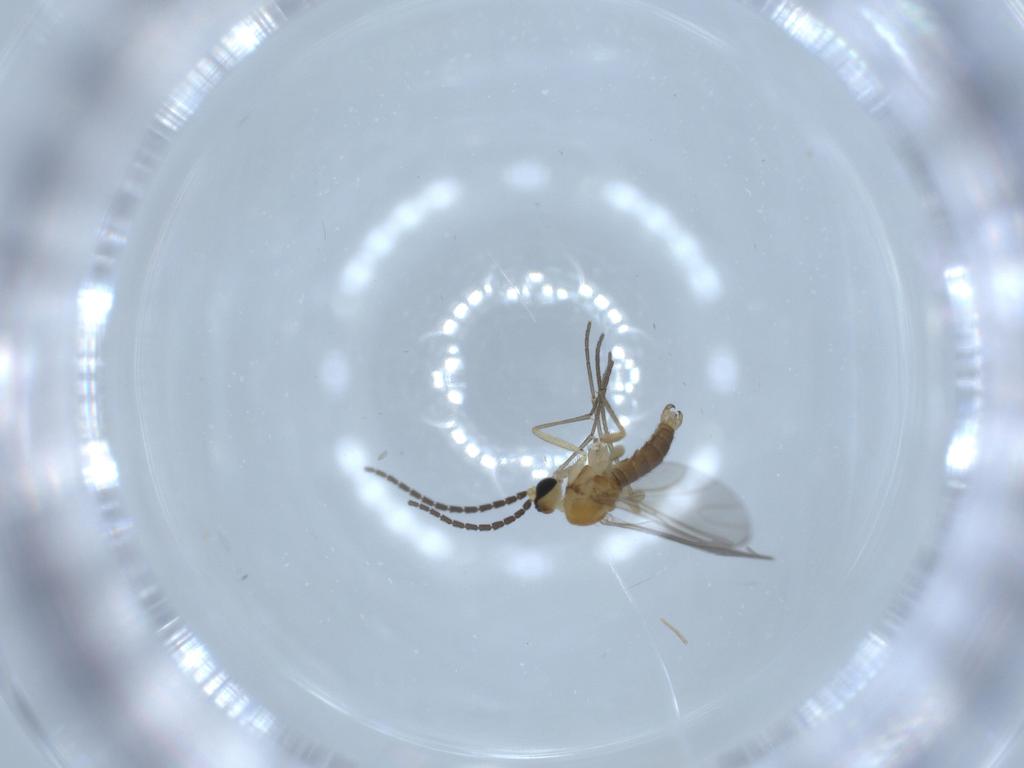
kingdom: Animalia
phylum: Arthropoda
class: Insecta
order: Diptera
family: Sciaridae
